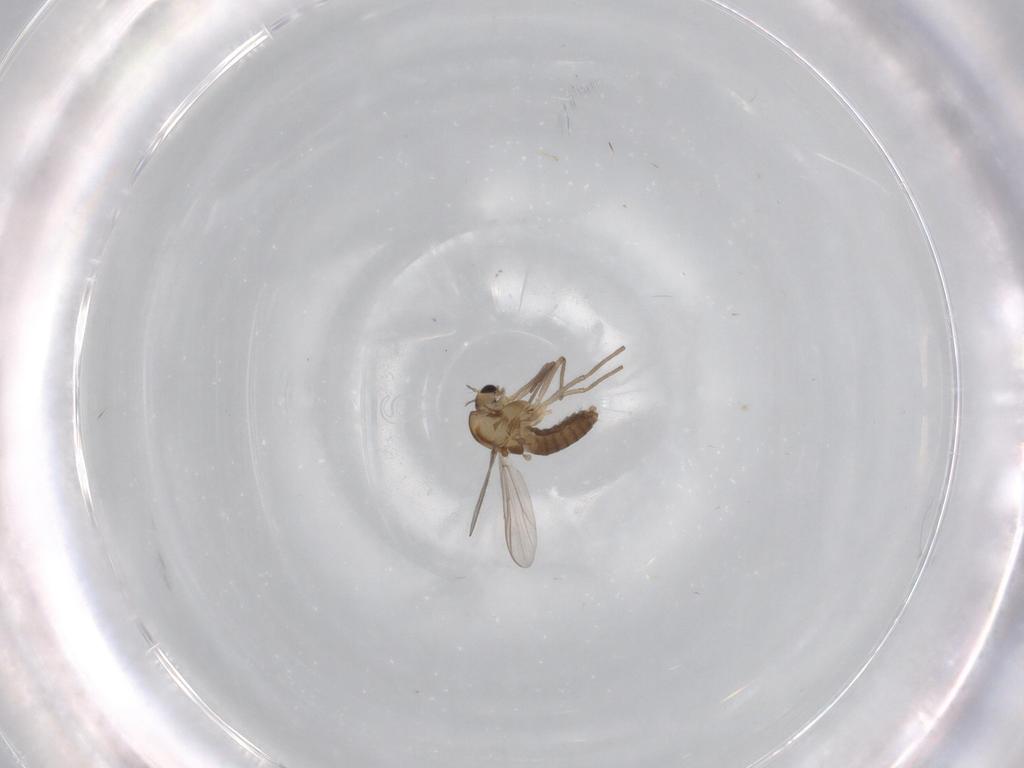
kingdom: Animalia
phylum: Arthropoda
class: Insecta
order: Diptera
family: Chironomidae
